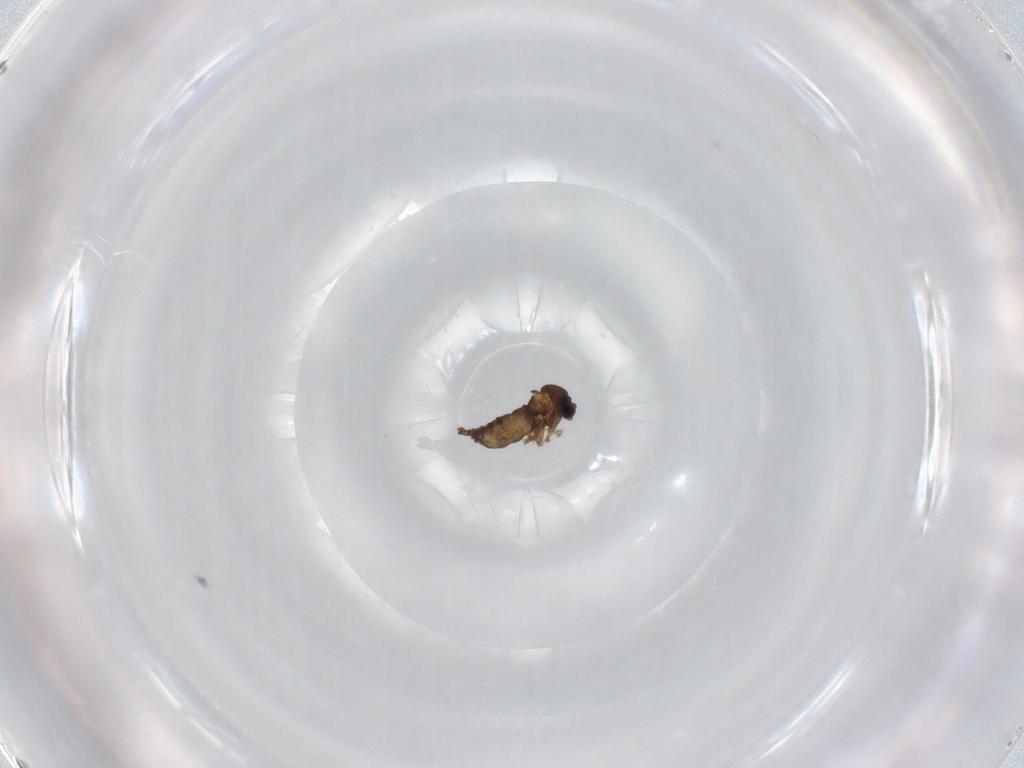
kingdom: Animalia
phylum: Arthropoda
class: Insecta
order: Diptera
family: Glossinidae
